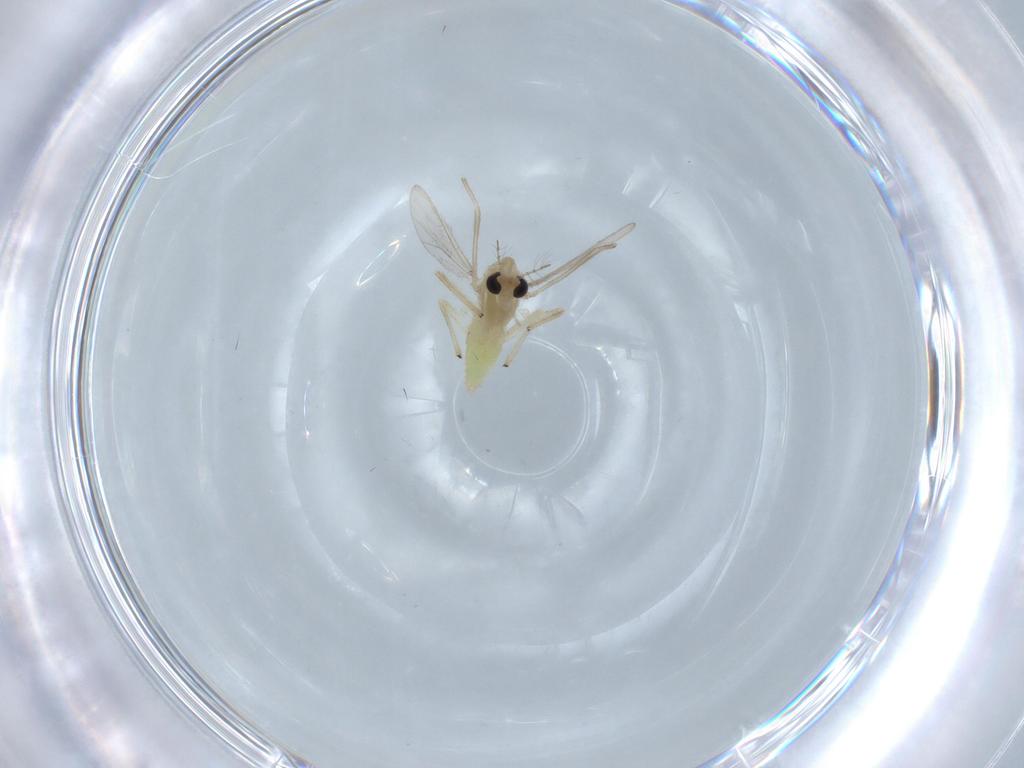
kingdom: Animalia
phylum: Arthropoda
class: Insecta
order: Diptera
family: Chironomidae
